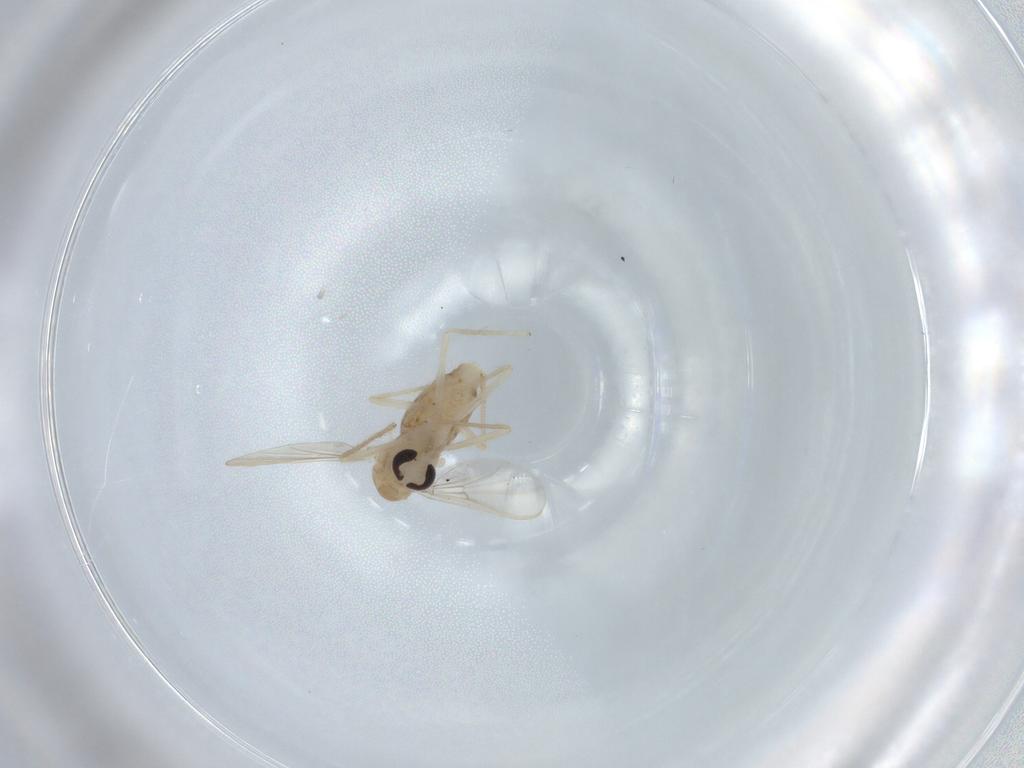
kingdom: Animalia
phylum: Arthropoda
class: Insecta
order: Diptera
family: Chironomidae
